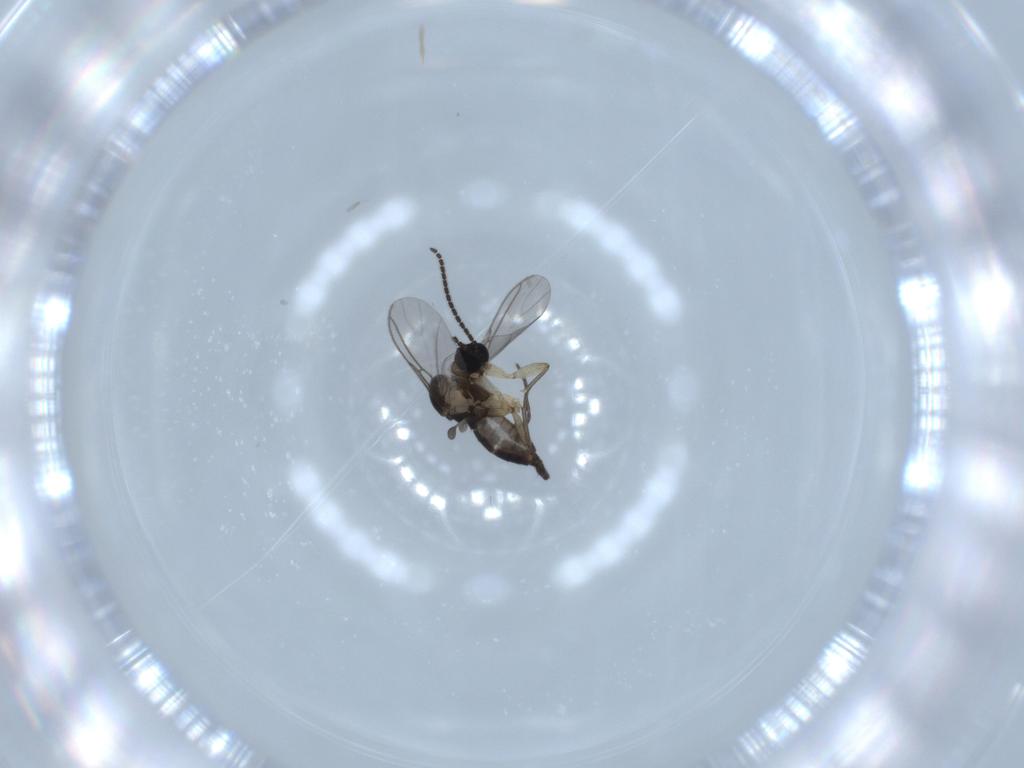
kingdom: Animalia
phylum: Arthropoda
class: Insecta
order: Diptera
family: Sciaridae
